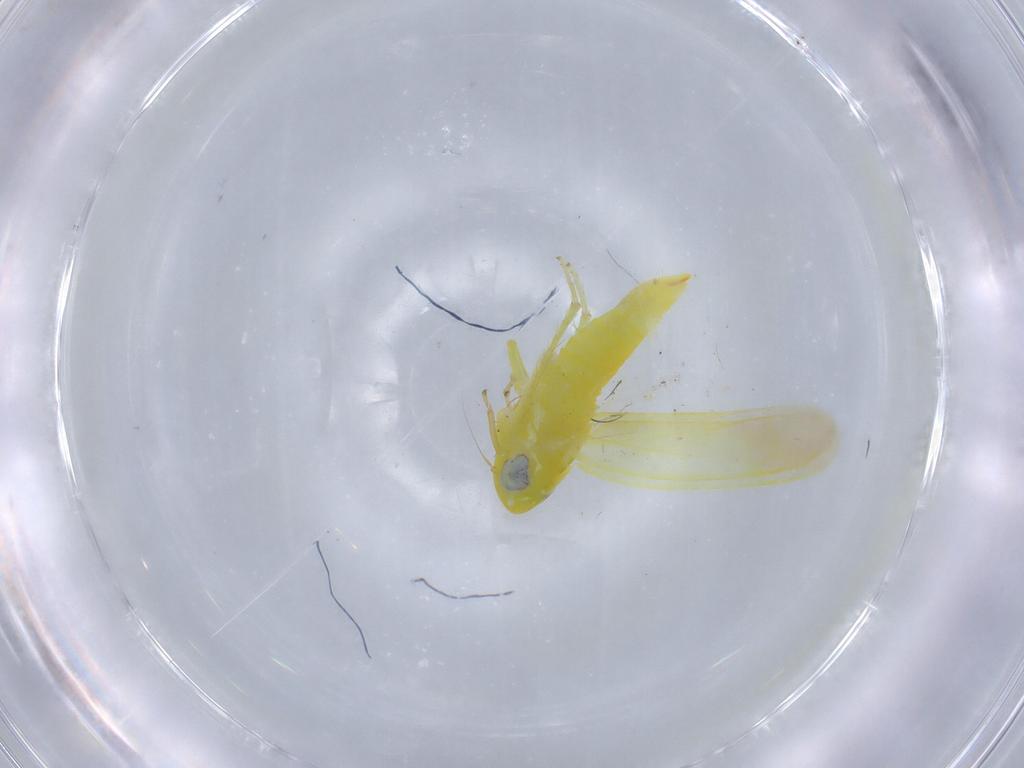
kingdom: Animalia
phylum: Arthropoda
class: Insecta
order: Hemiptera
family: Cicadellidae
